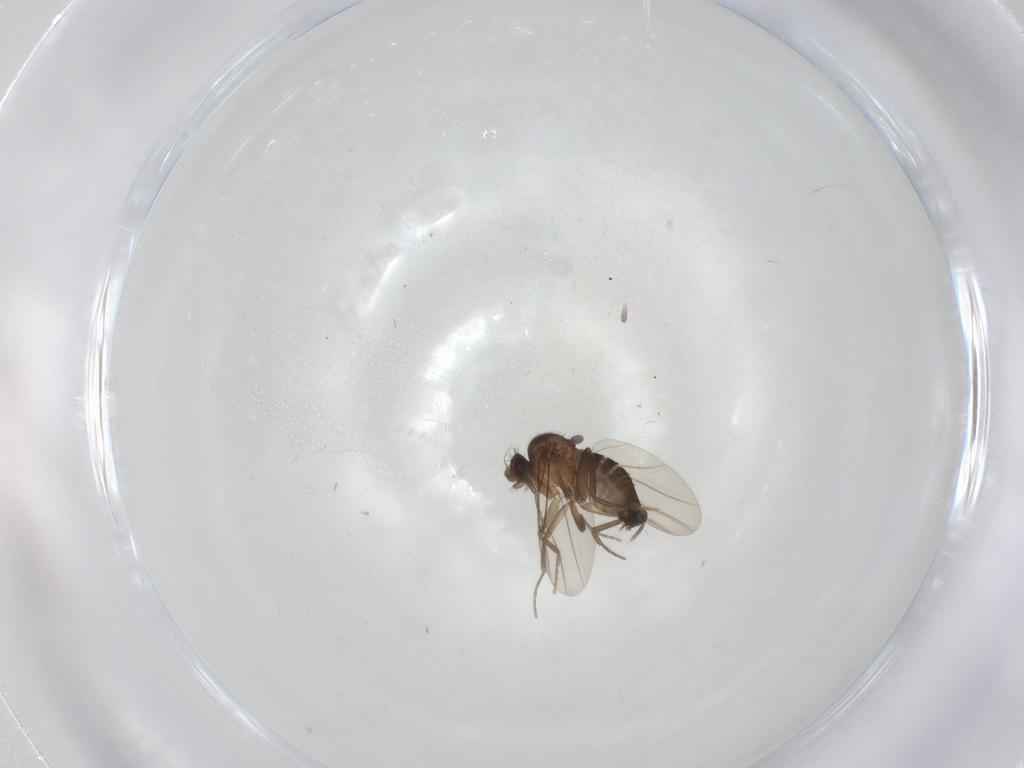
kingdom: Animalia
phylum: Arthropoda
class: Insecta
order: Diptera
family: Phoridae
